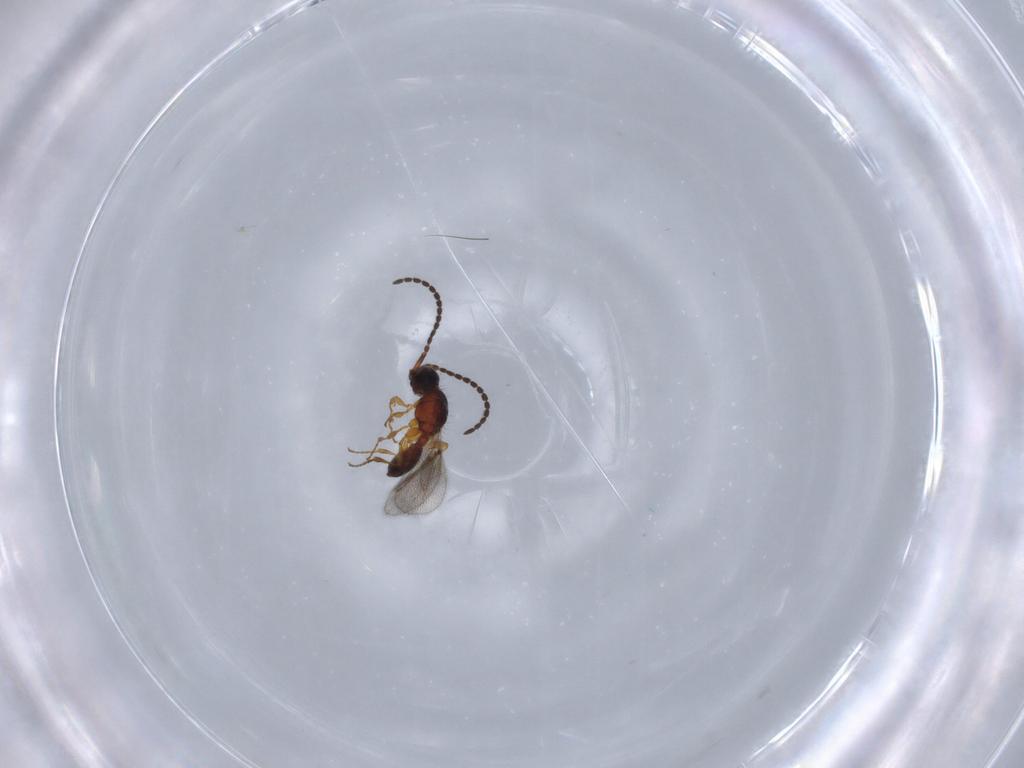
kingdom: Animalia
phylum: Arthropoda
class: Insecta
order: Hymenoptera
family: Diapriidae
